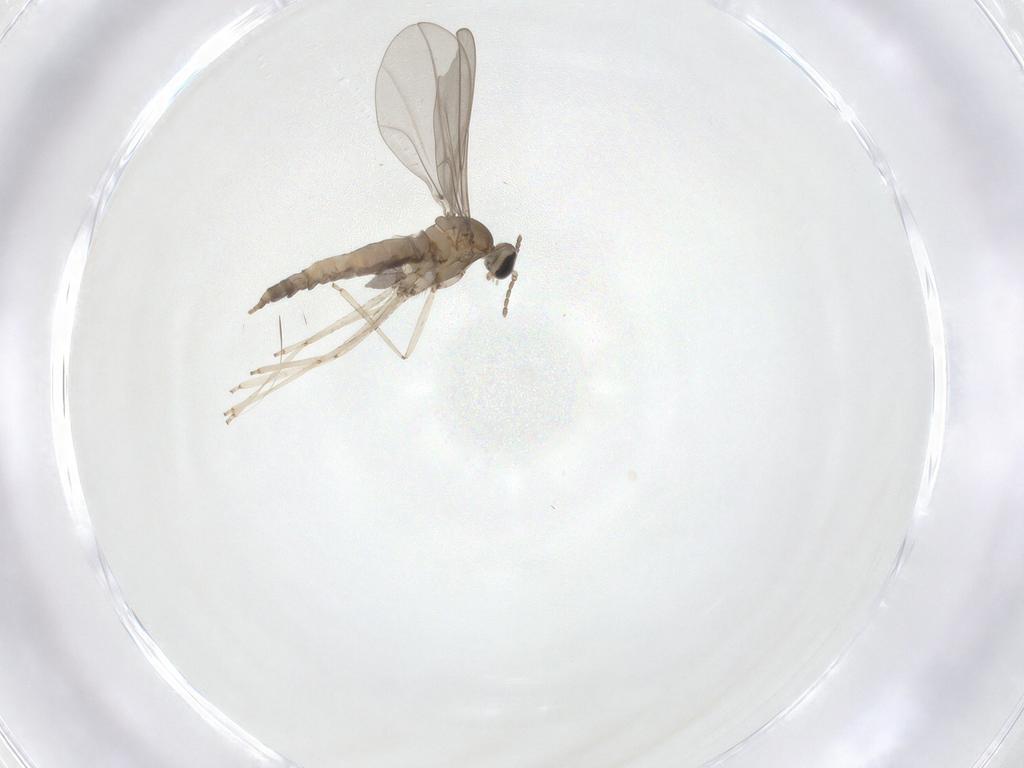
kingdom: Animalia
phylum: Arthropoda
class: Insecta
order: Diptera
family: Cecidomyiidae
